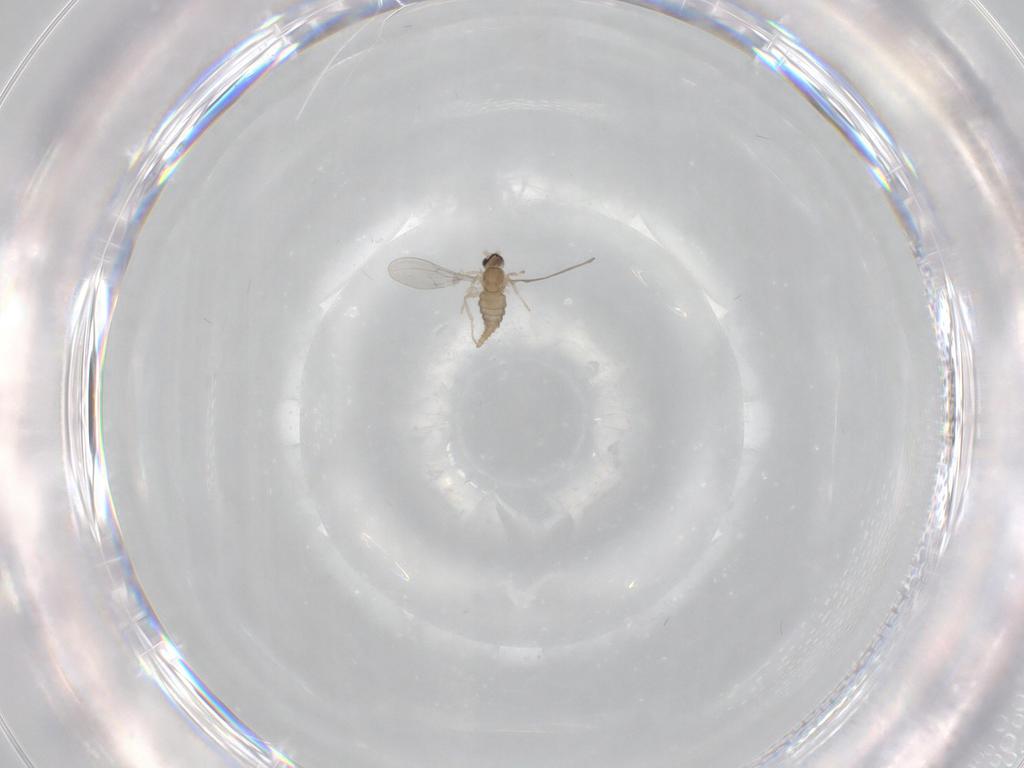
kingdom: Animalia
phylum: Arthropoda
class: Insecta
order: Diptera
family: Cecidomyiidae
